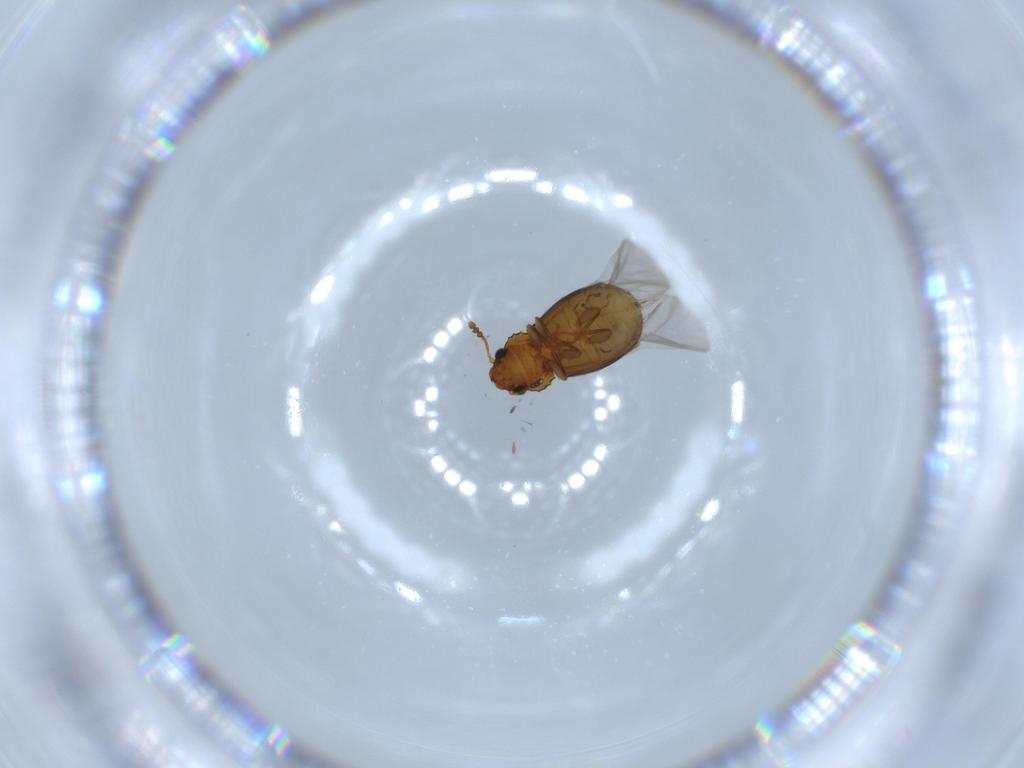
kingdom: Animalia
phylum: Arthropoda
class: Insecta
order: Coleoptera
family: Salpingidae
